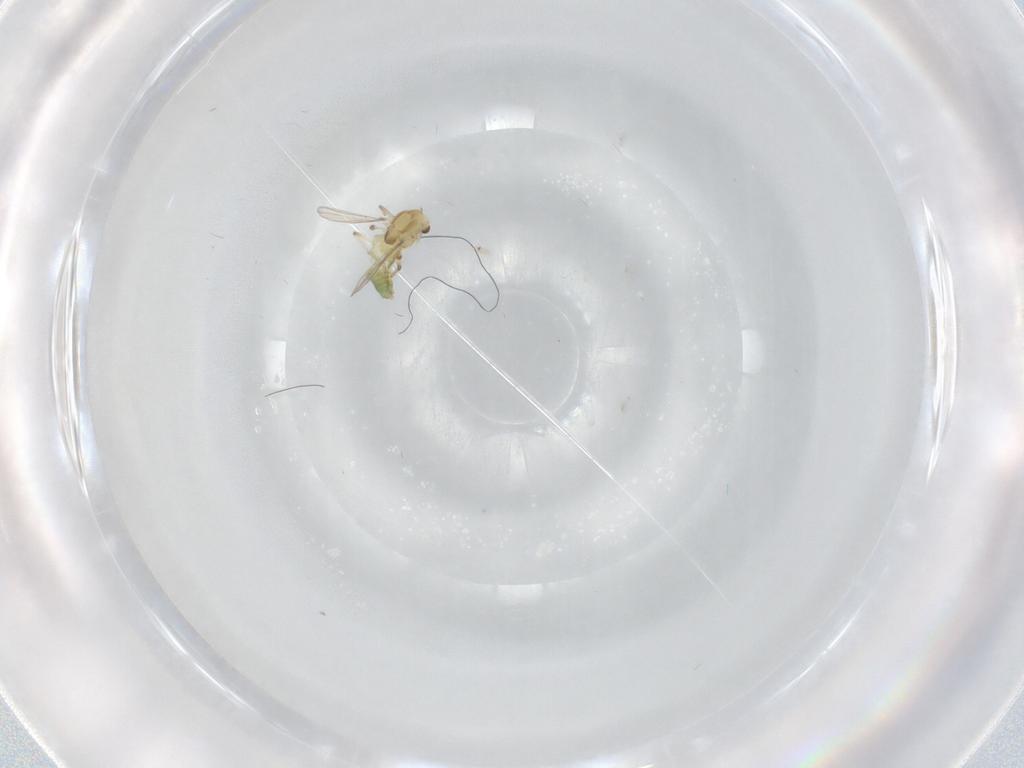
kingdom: Animalia
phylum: Arthropoda
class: Insecta
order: Diptera
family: Chironomidae
